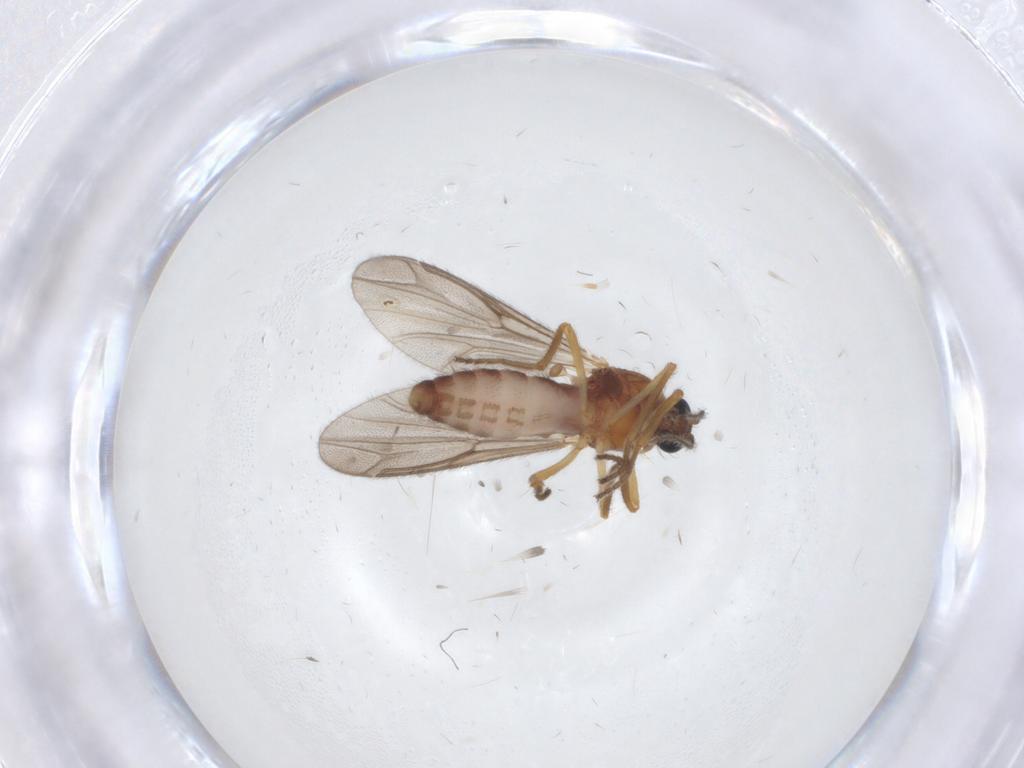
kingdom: Animalia
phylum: Arthropoda
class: Insecta
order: Diptera
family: Ceratopogonidae
